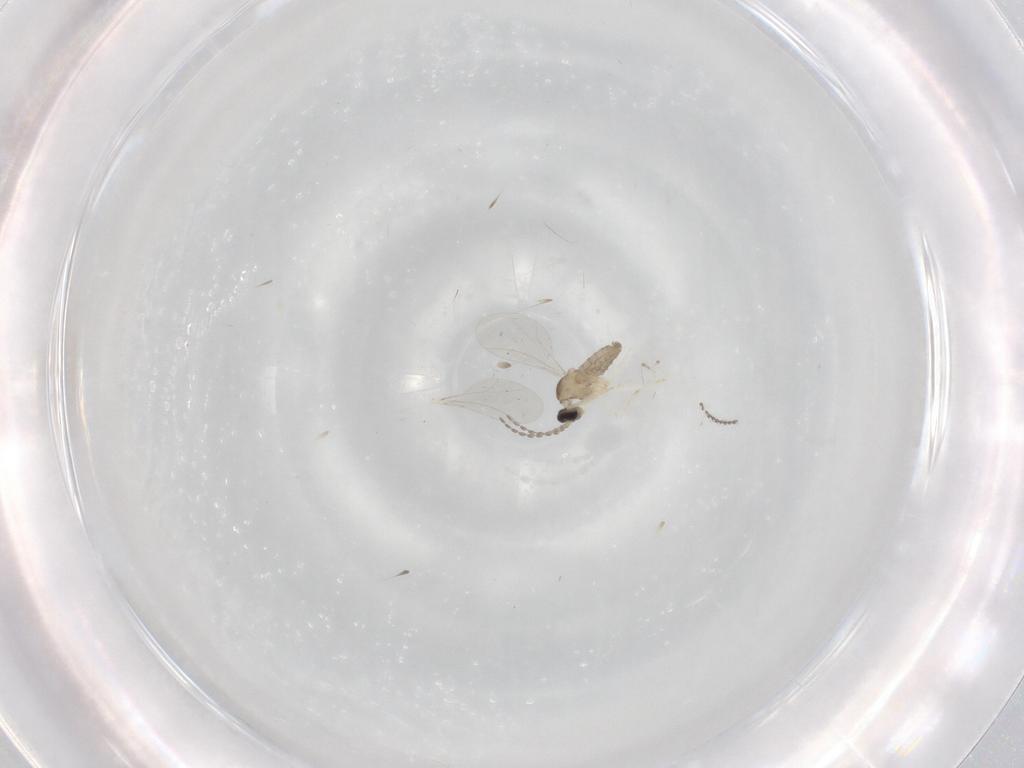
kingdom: Animalia
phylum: Arthropoda
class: Insecta
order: Diptera
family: Cecidomyiidae
